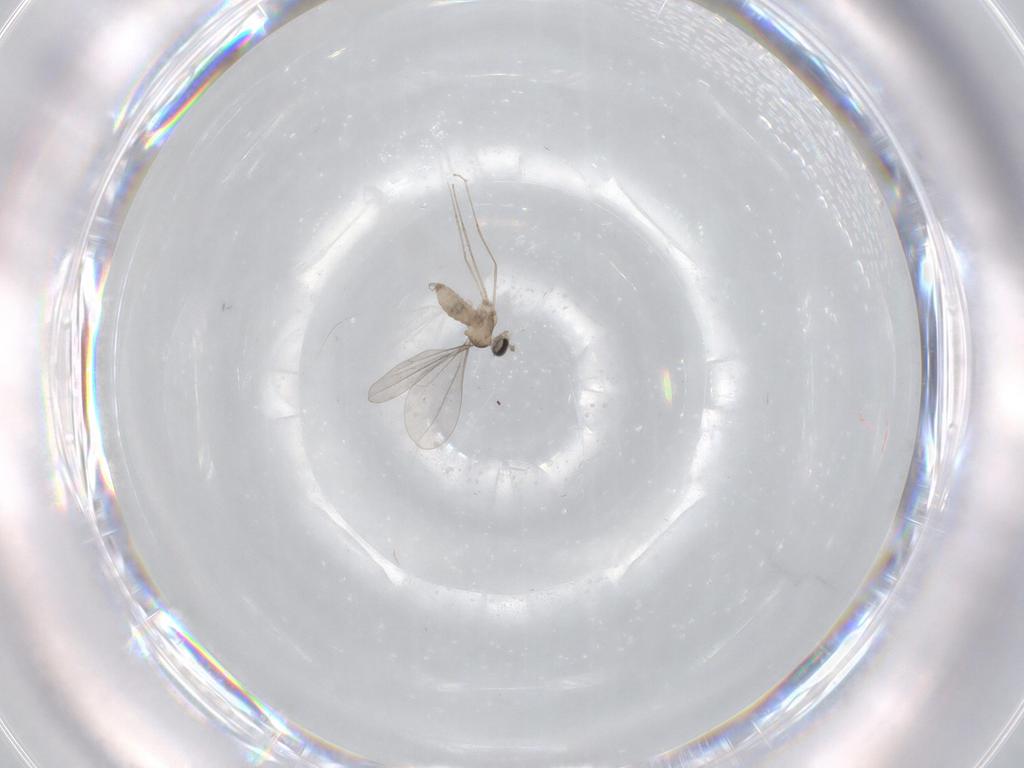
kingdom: Animalia
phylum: Arthropoda
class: Insecta
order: Diptera
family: Cecidomyiidae
